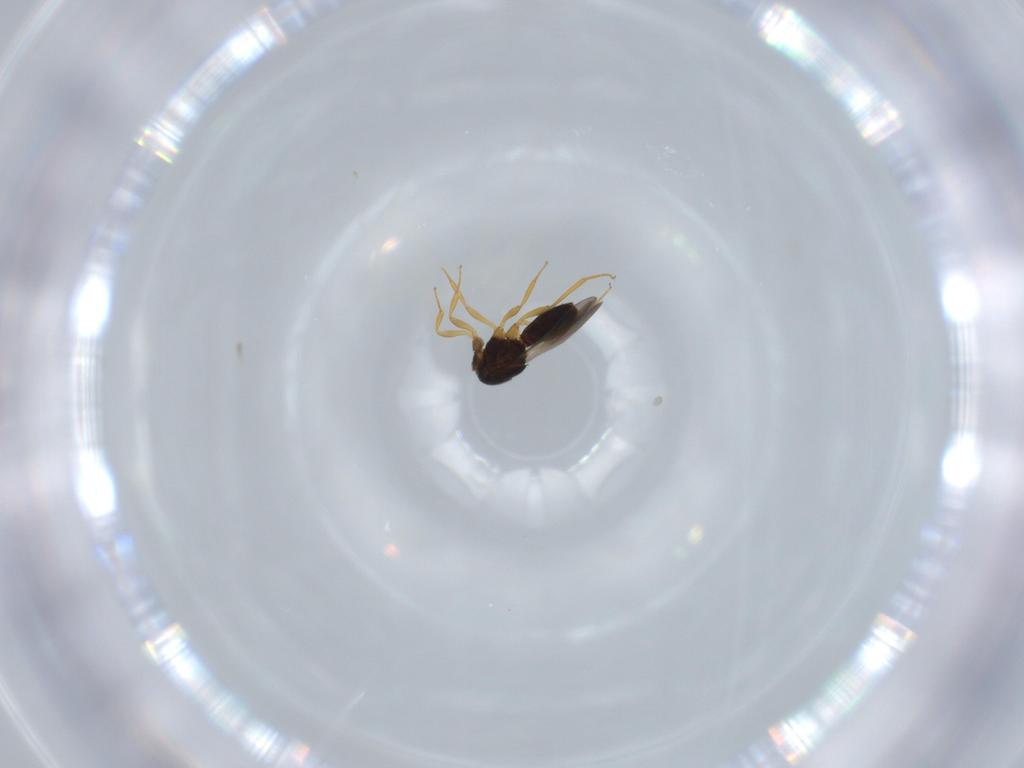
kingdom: Animalia
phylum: Arthropoda
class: Insecta
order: Hymenoptera
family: Scelionidae
